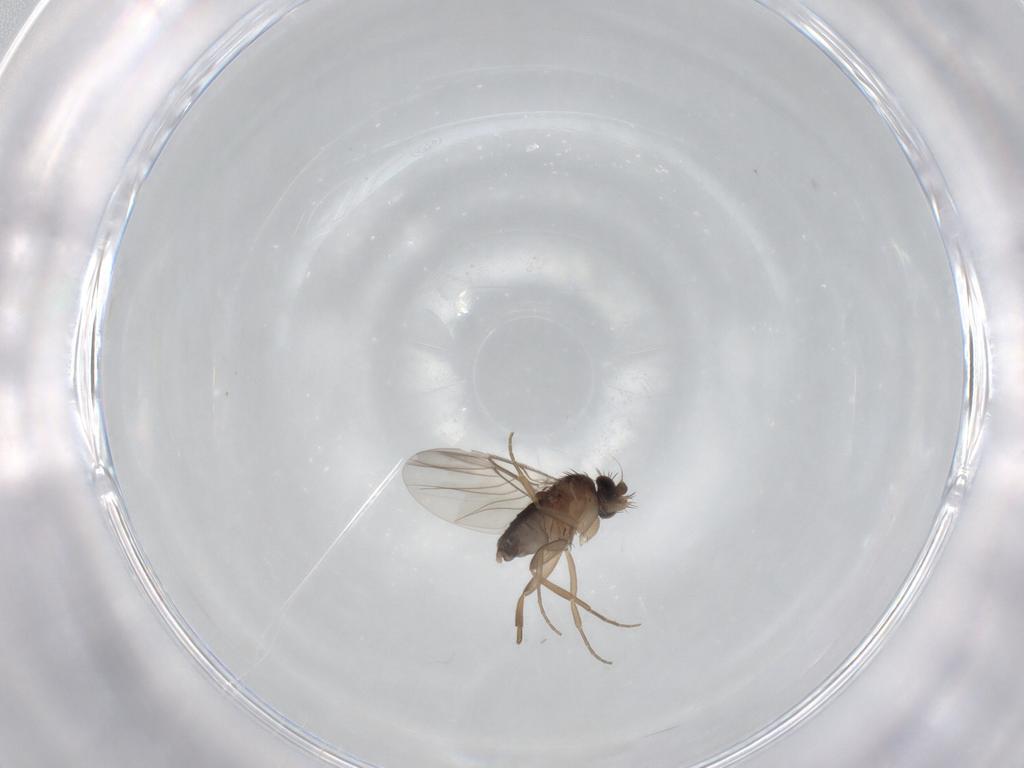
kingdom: Animalia
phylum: Arthropoda
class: Insecta
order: Diptera
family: Phoridae
